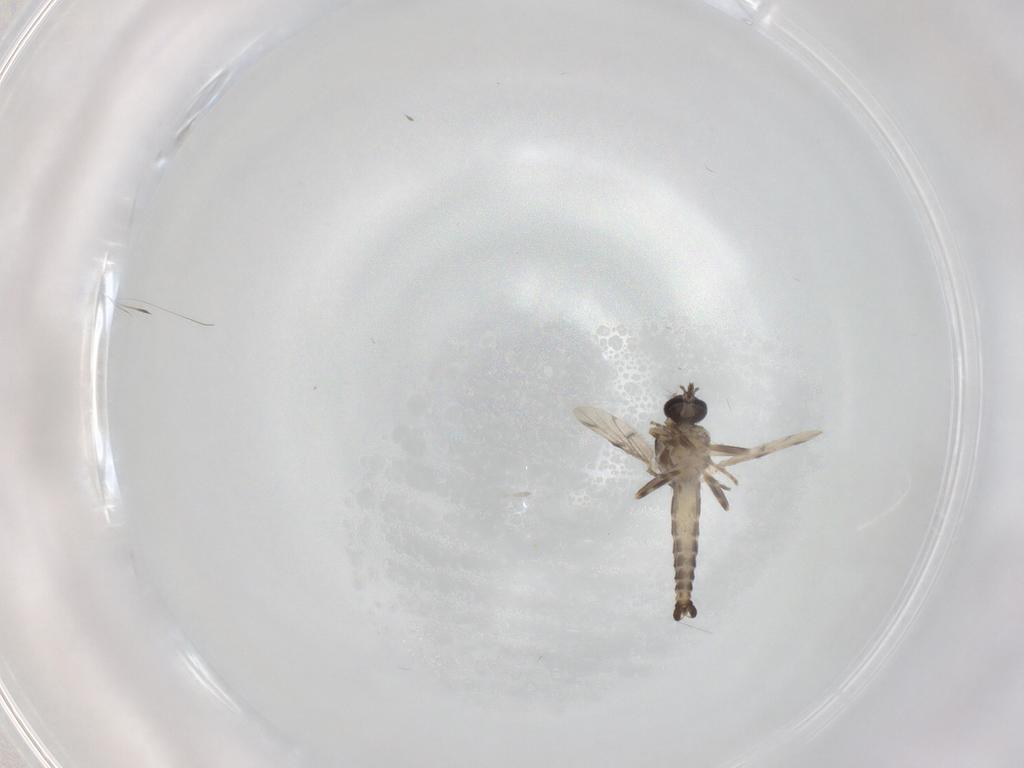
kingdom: Animalia
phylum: Arthropoda
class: Insecta
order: Diptera
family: Ceratopogonidae
